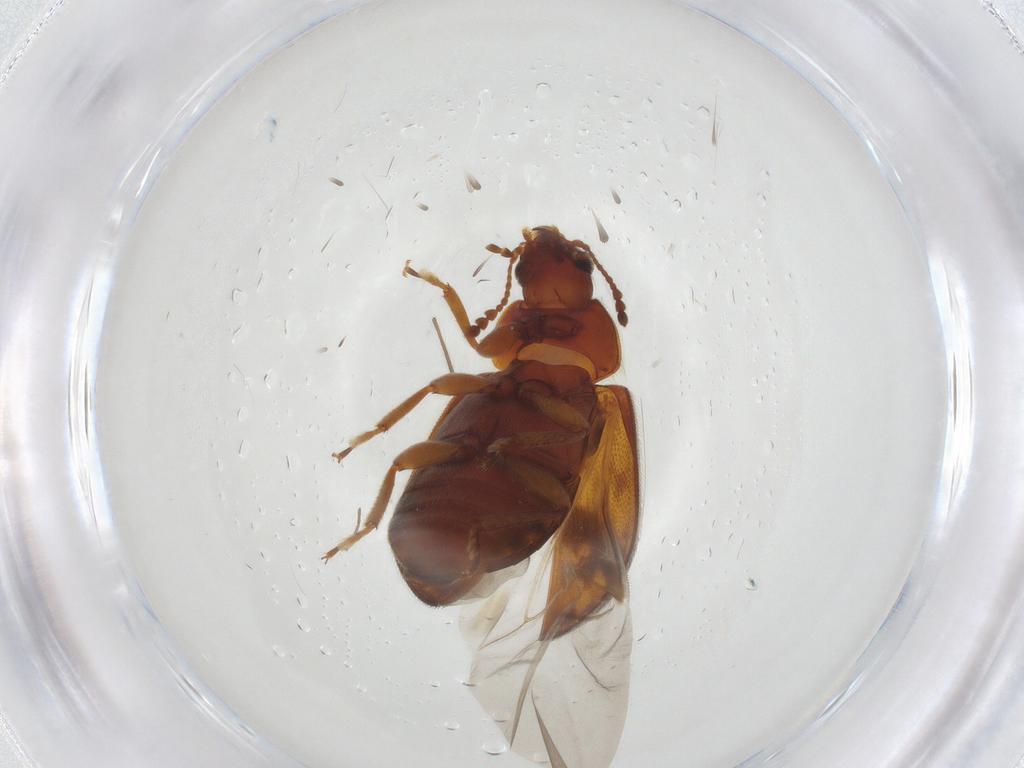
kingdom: Animalia
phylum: Arthropoda
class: Insecta
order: Coleoptera
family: Byturidae
